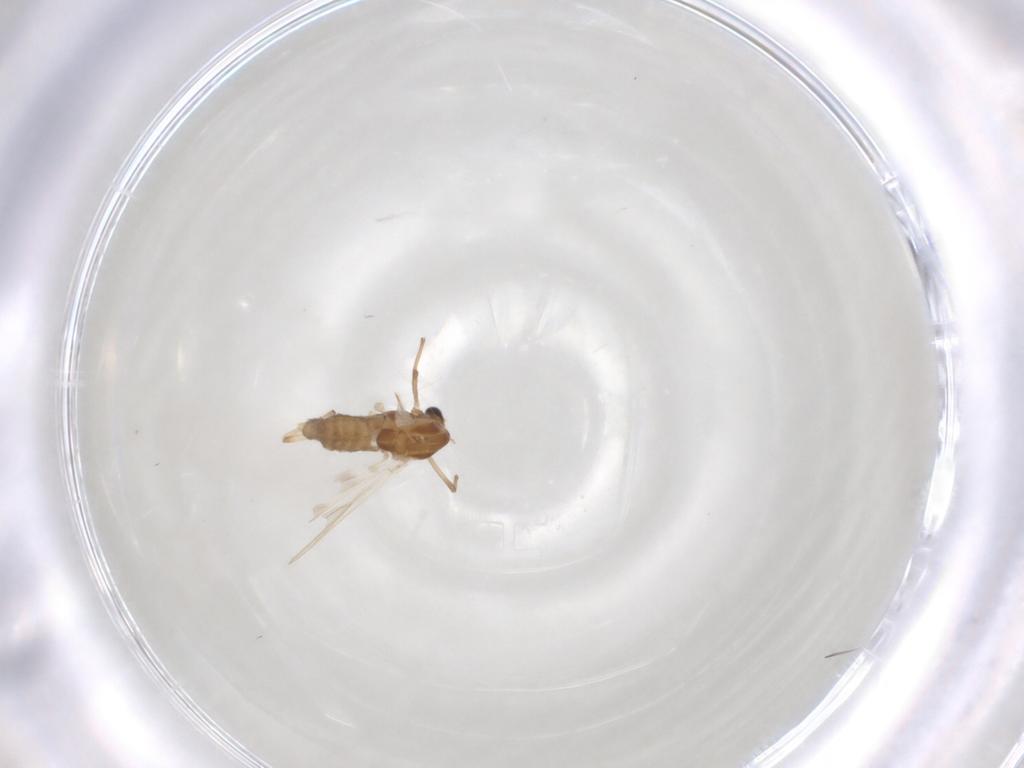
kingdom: Animalia
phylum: Arthropoda
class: Insecta
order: Diptera
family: Chironomidae
